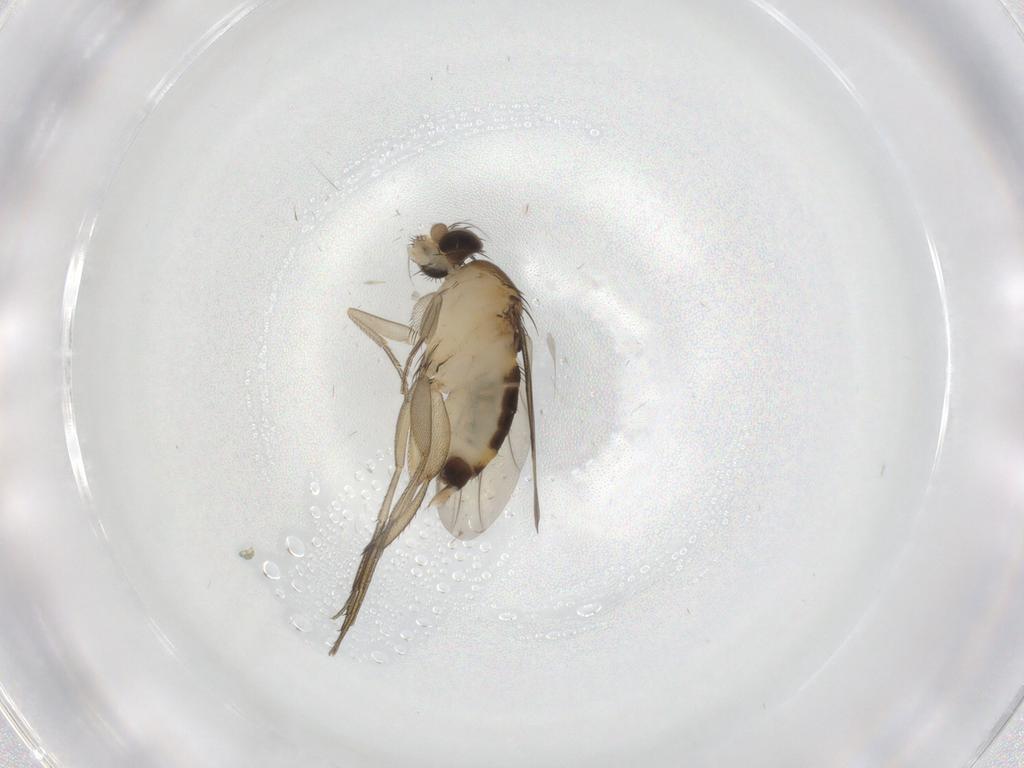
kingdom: Animalia
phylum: Arthropoda
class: Insecta
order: Diptera
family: Phoridae
